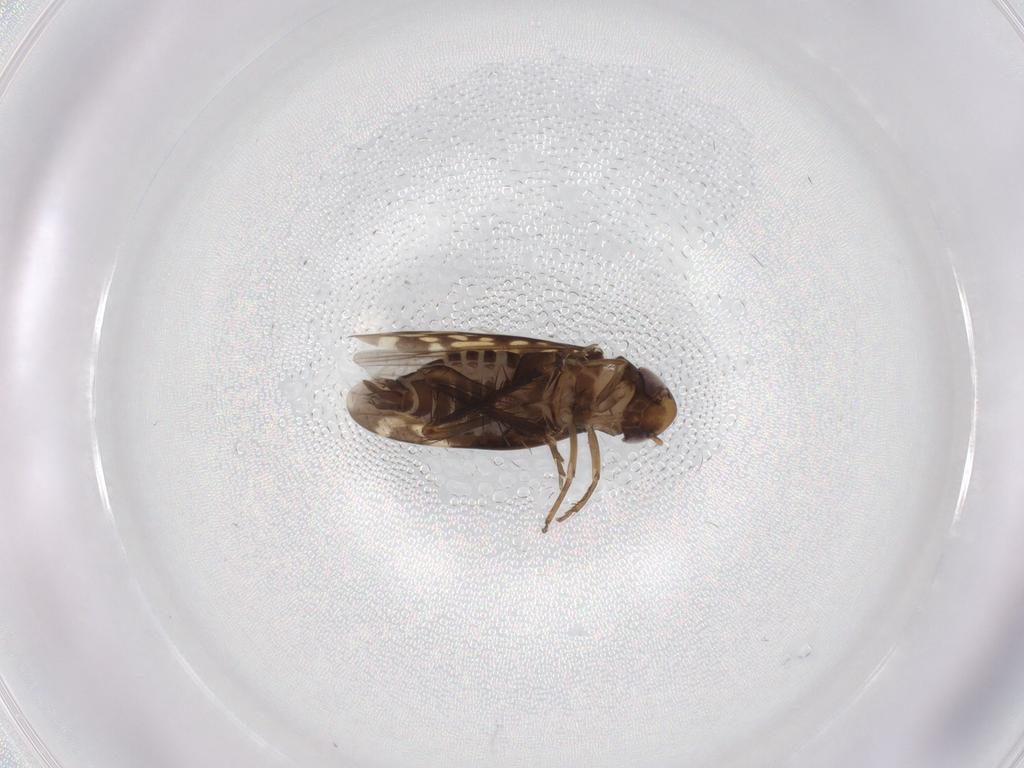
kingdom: Animalia
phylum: Arthropoda
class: Insecta
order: Hemiptera
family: Cicadellidae
